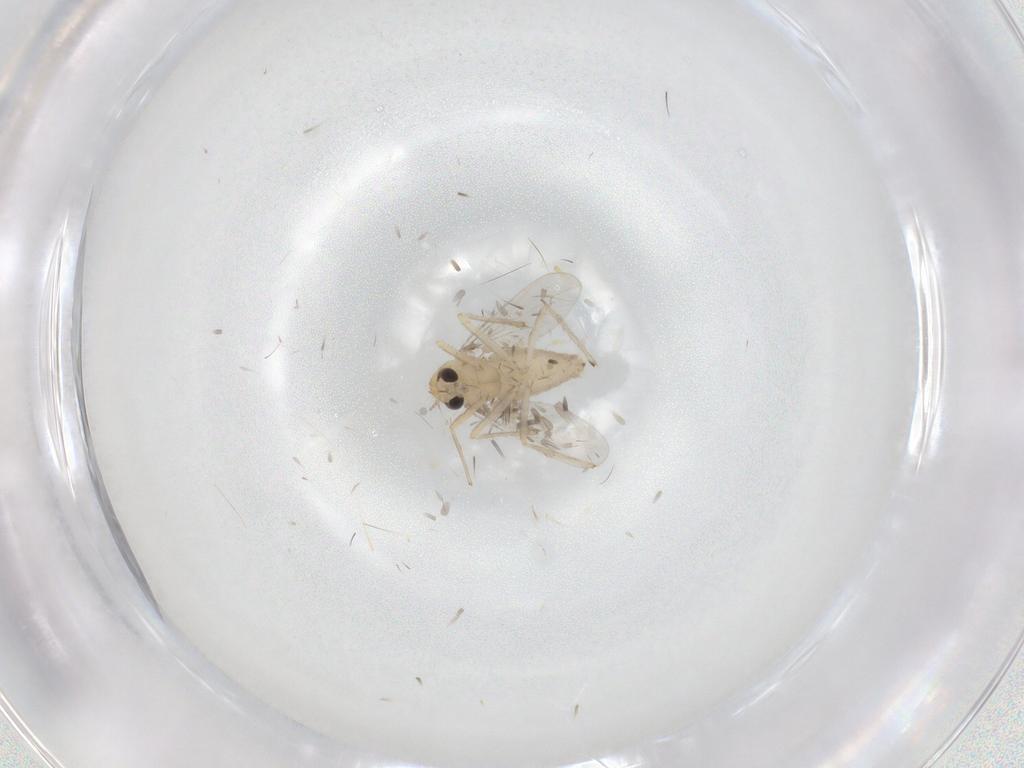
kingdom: Animalia
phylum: Arthropoda
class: Insecta
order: Diptera
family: Chironomidae
